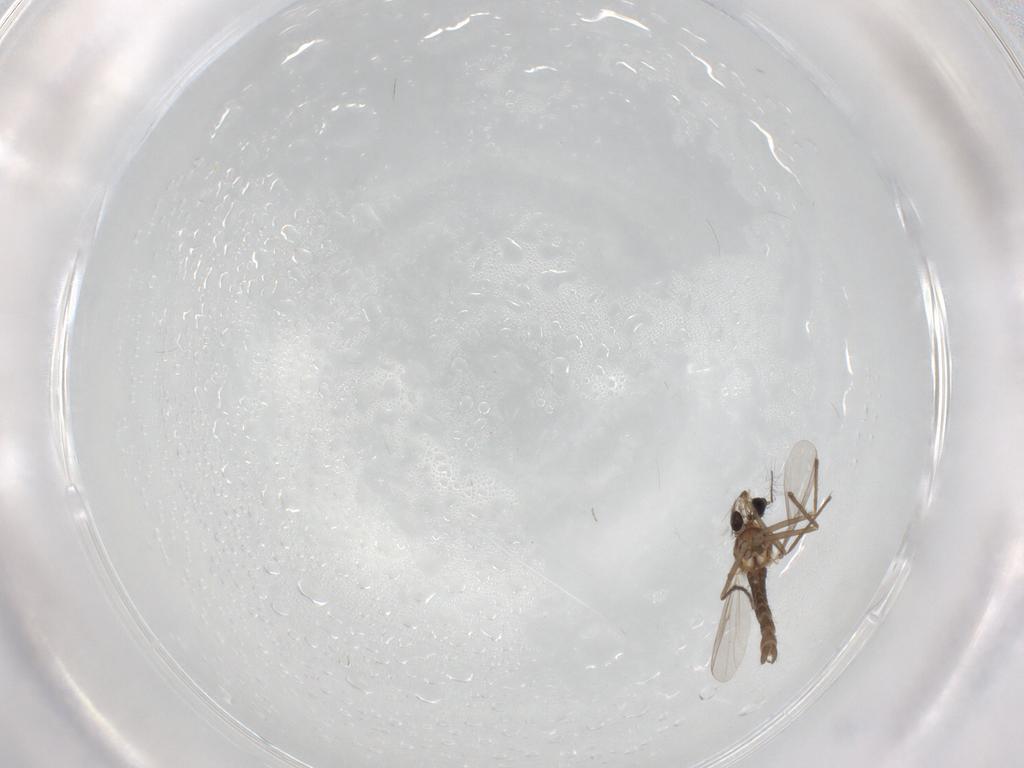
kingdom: Animalia
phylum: Arthropoda
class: Insecta
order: Diptera
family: Chironomidae
